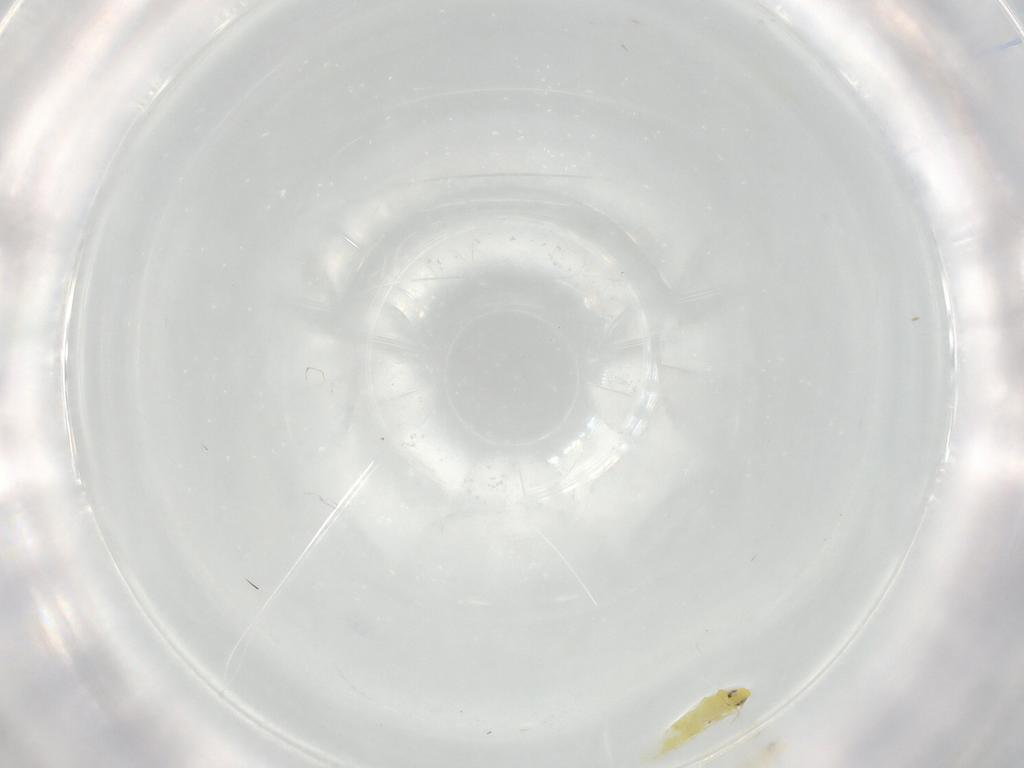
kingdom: Animalia
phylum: Arthropoda
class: Insecta
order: Hemiptera
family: Aleyrodidae
